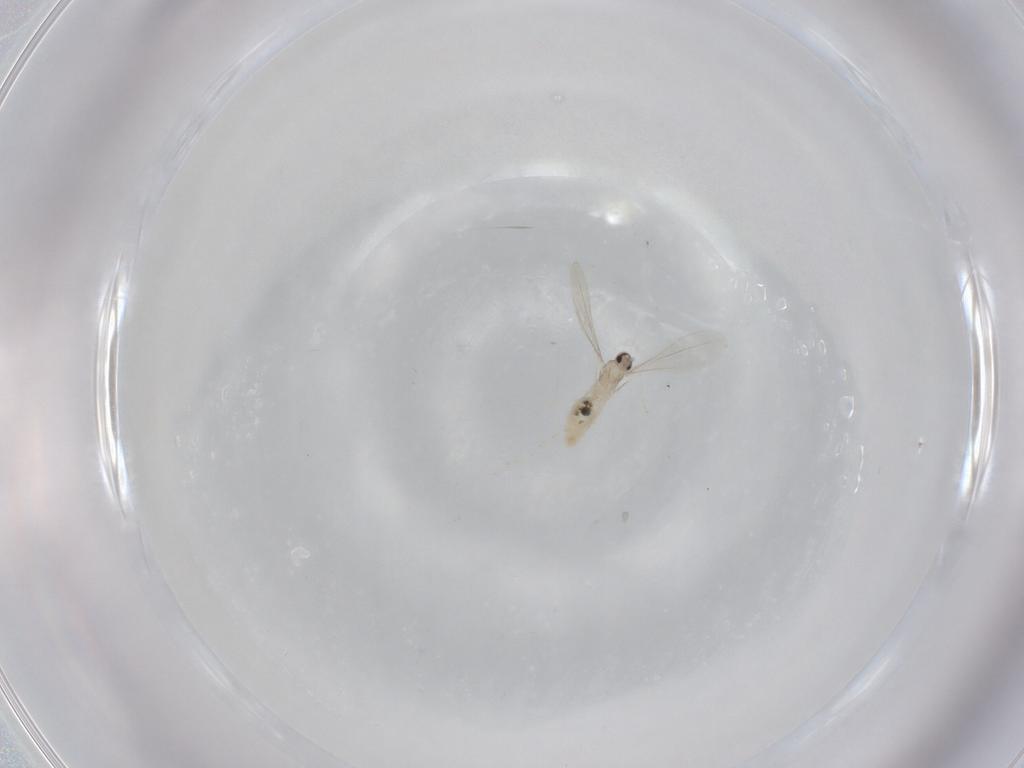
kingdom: Animalia
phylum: Arthropoda
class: Insecta
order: Diptera
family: Cecidomyiidae
